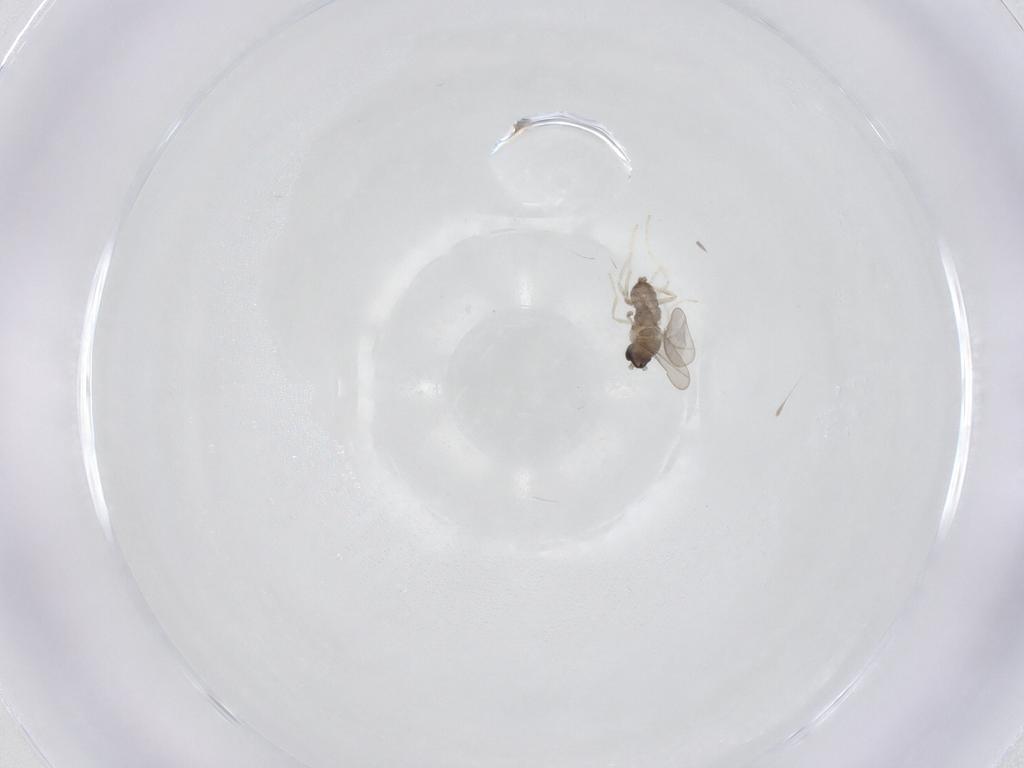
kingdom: Animalia
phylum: Arthropoda
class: Insecta
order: Diptera
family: Cecidomyiidae
